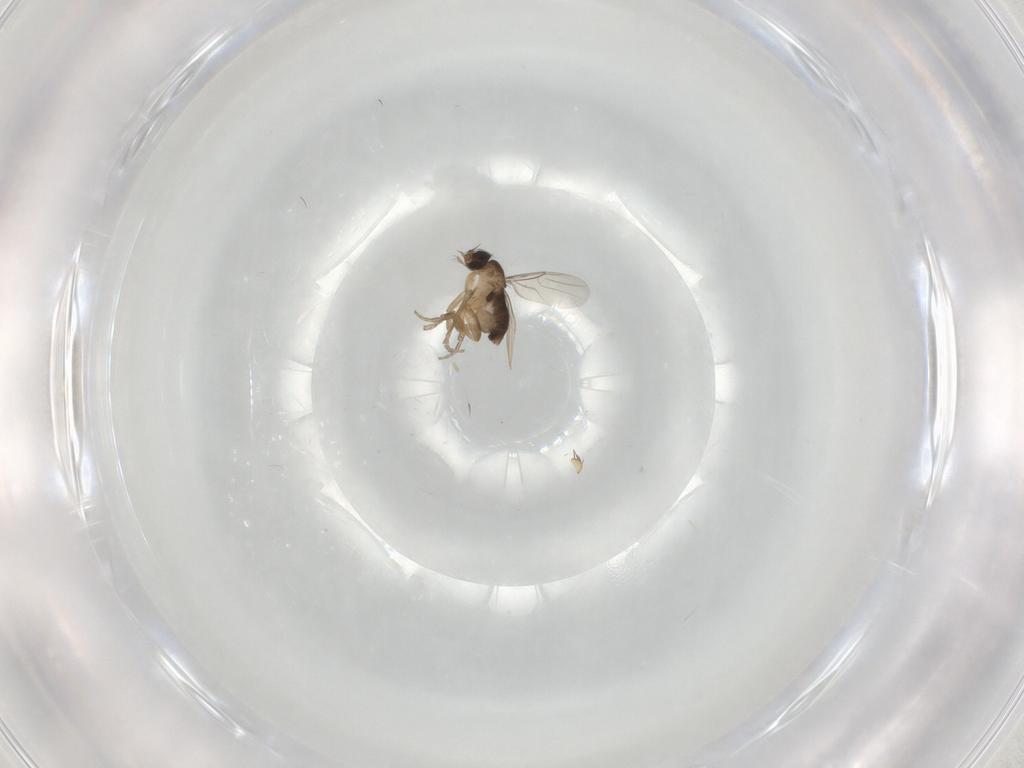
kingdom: Animalia
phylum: Arthropoda
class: Insecta
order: Diptera
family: Phoridae
